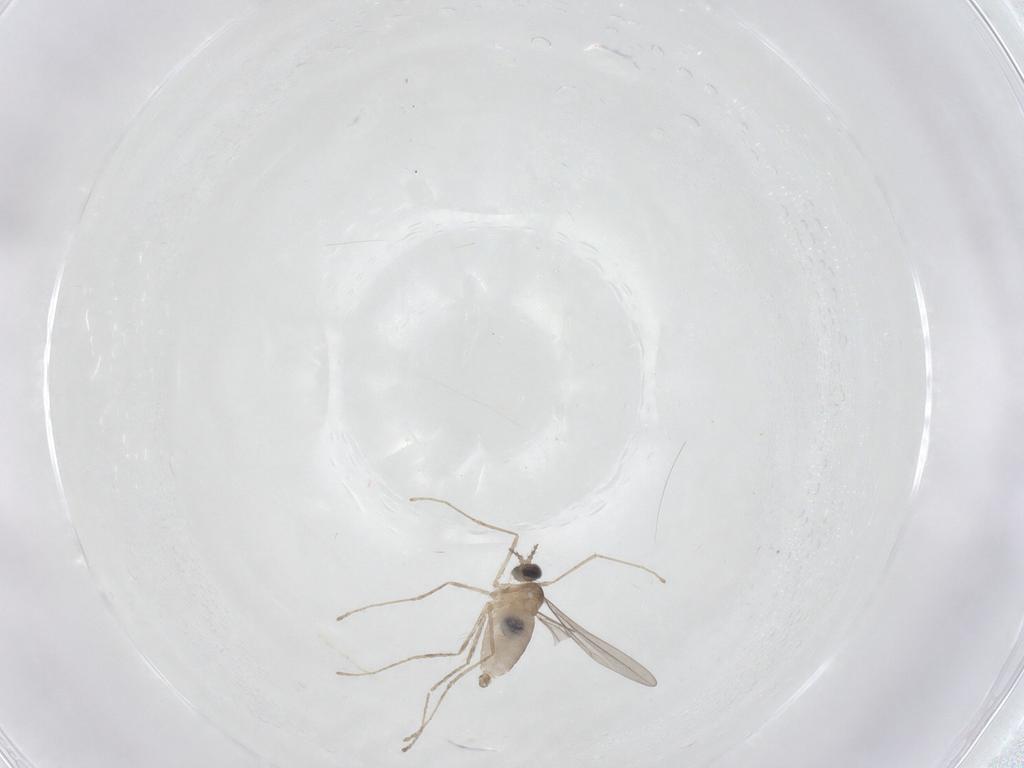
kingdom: Animalia
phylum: Arthropoda
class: Insecta
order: Diptera
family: Cecidomyiidae
